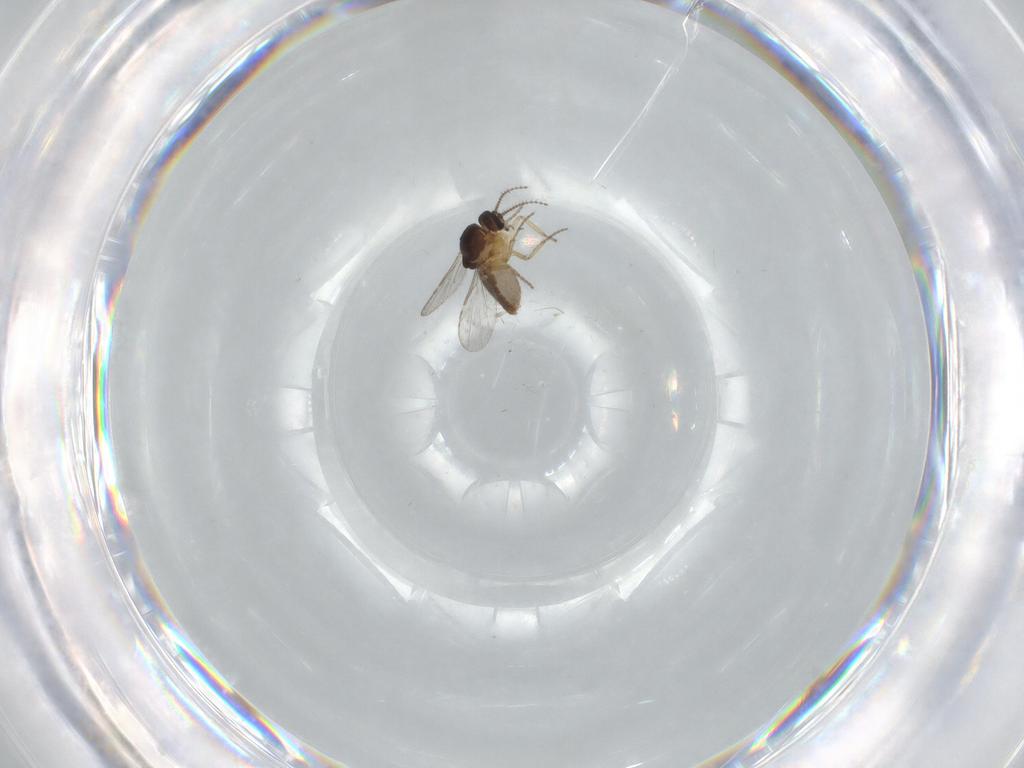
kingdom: Animalia
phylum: Arthropoda
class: Insecta
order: Diptera
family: Ceratopogonidae
